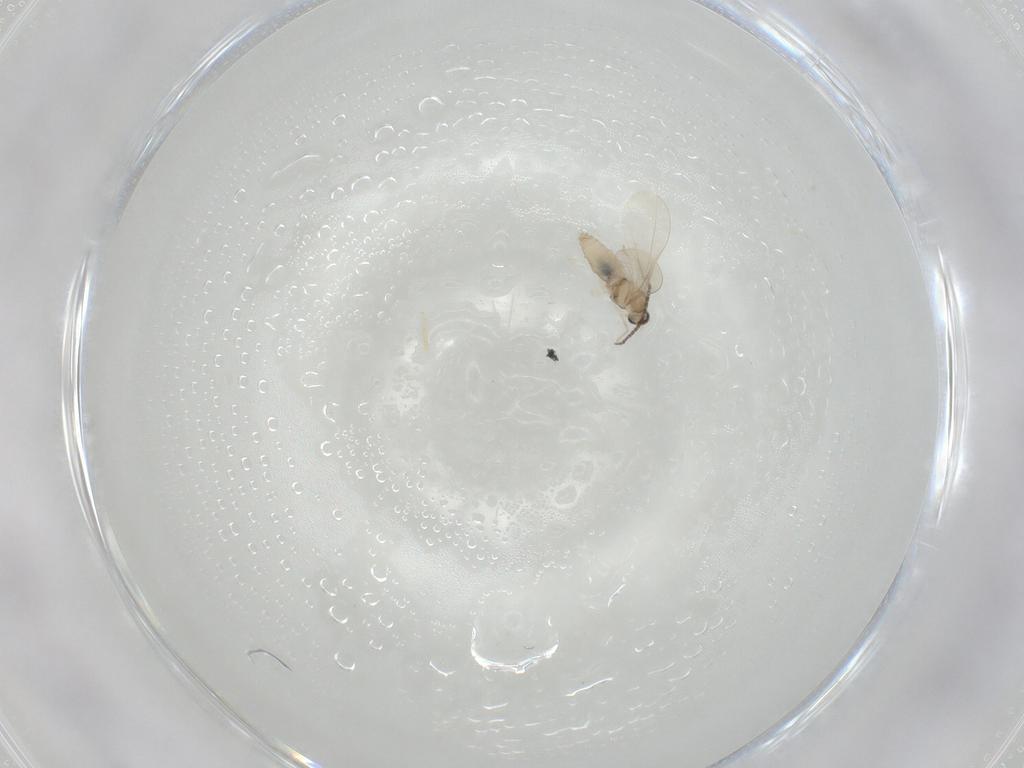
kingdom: Animalia
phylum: Arthropoda
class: Insecta
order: Diptera
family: Cecidomyiidae
